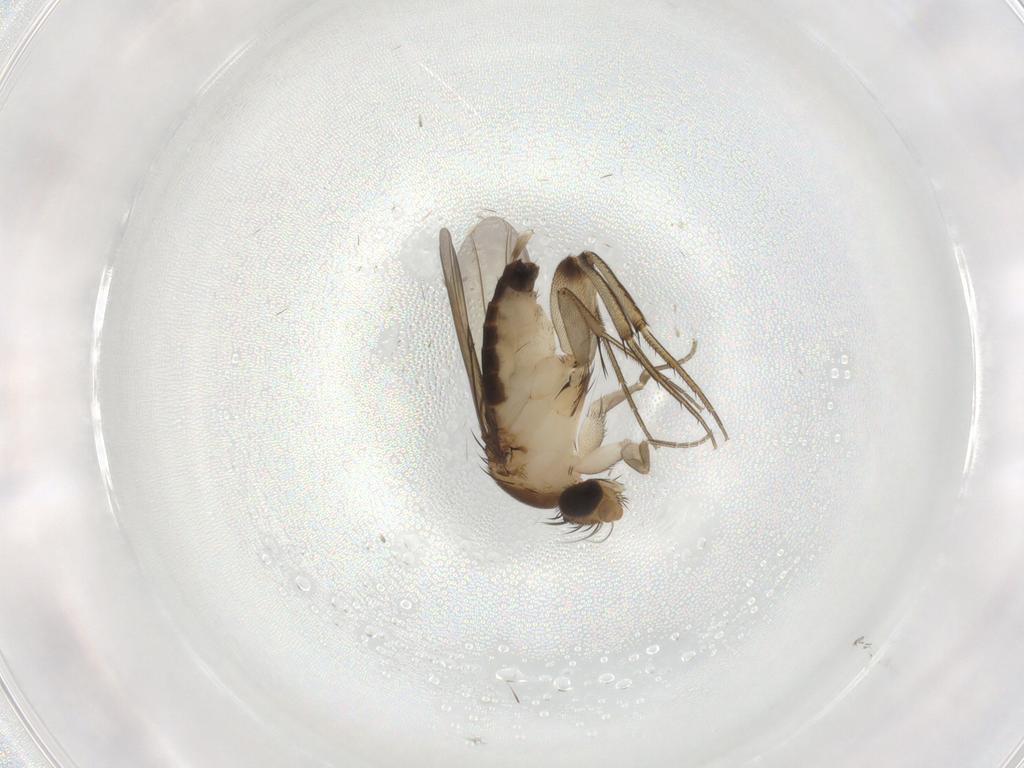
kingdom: Animalia
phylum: Arthropoda
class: Insecta
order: Diptera
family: Phoridae
